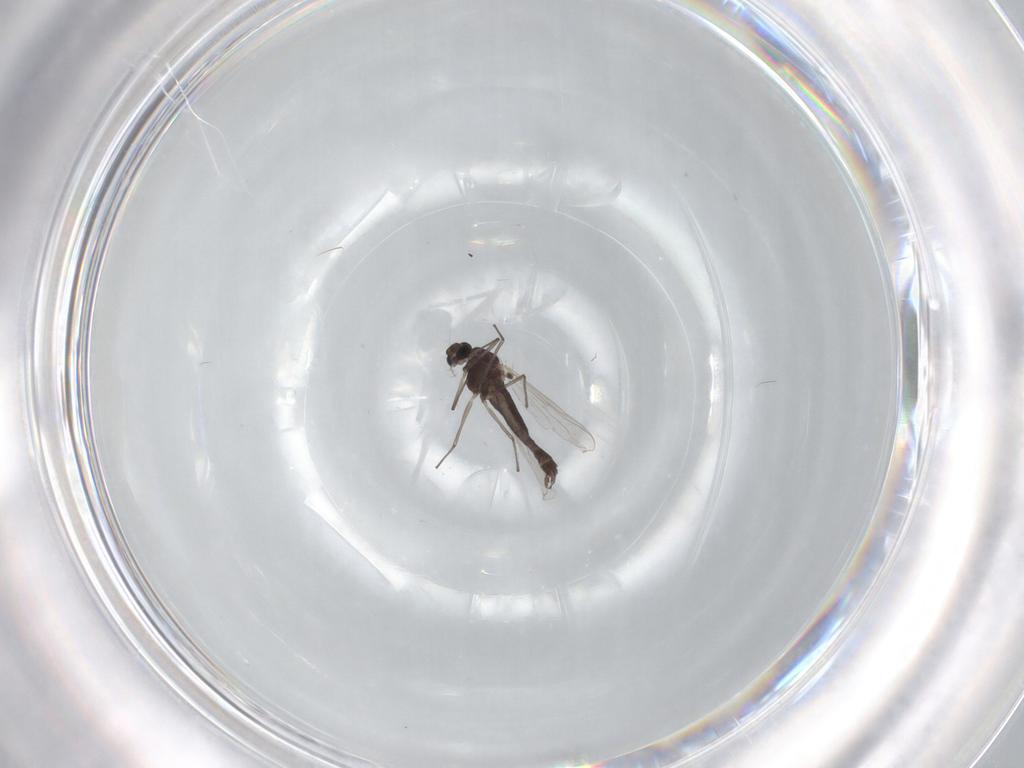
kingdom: Animalia
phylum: Arthropoda
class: Insecta
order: Diptera
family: Chironomidae
